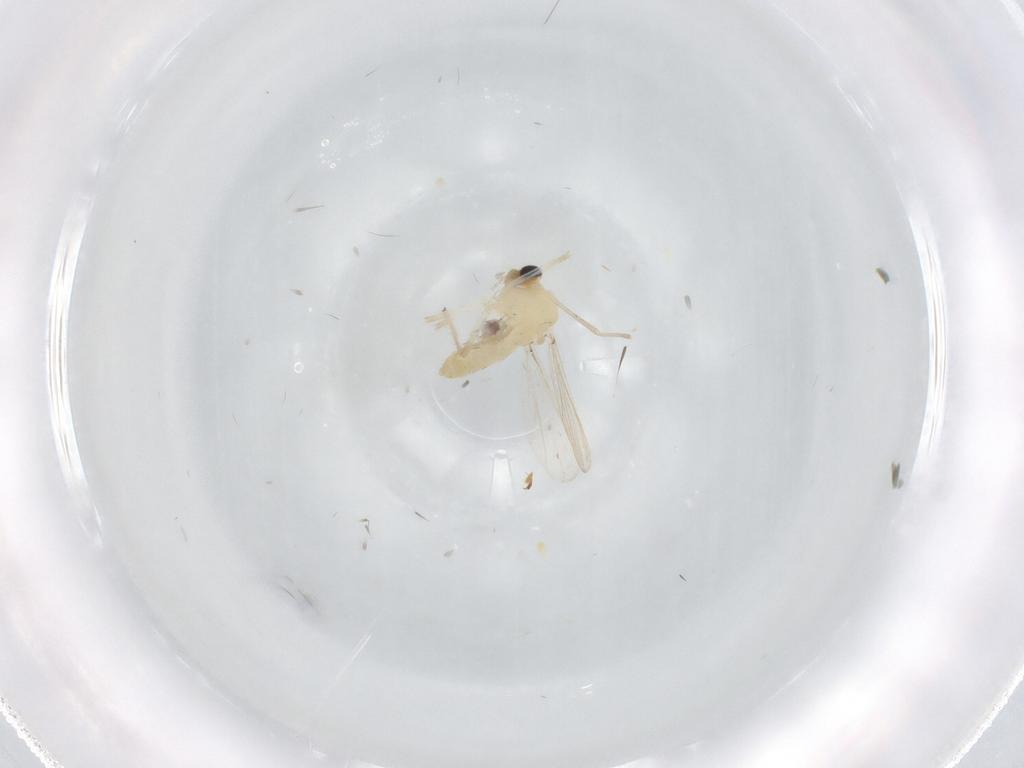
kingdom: Animalia
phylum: Arthropoda
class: Insecta
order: Diptera
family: Chironomidae
